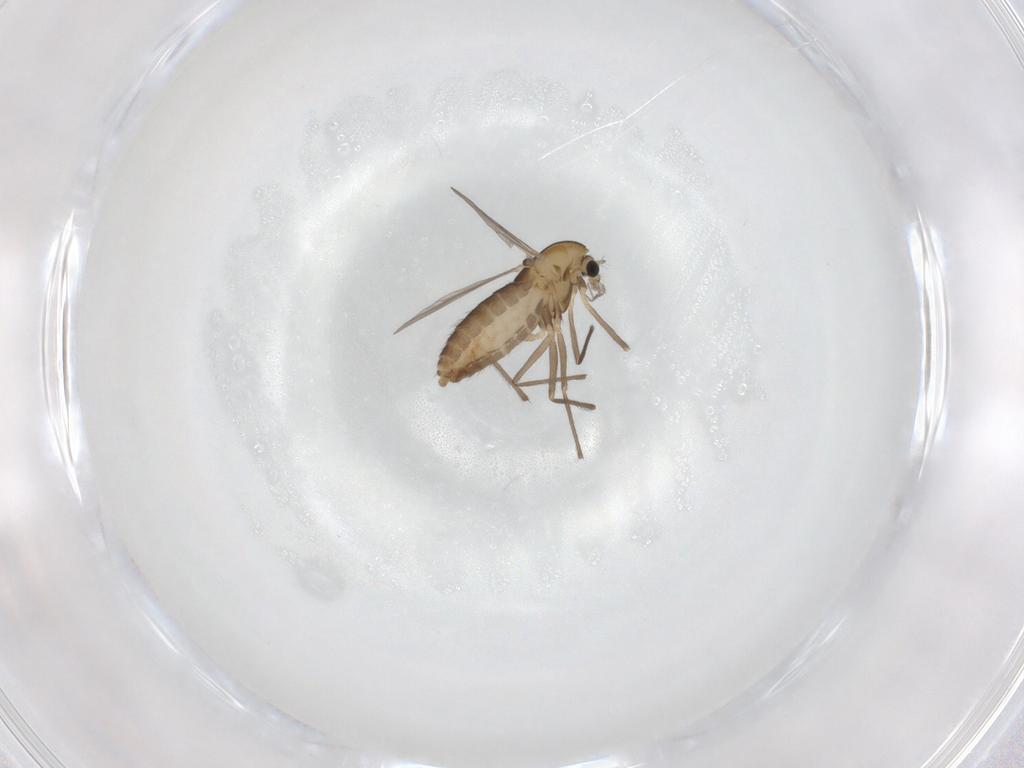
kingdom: Animalia
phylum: Arthropoda
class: Insecta
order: Diptera
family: Chironomidae
